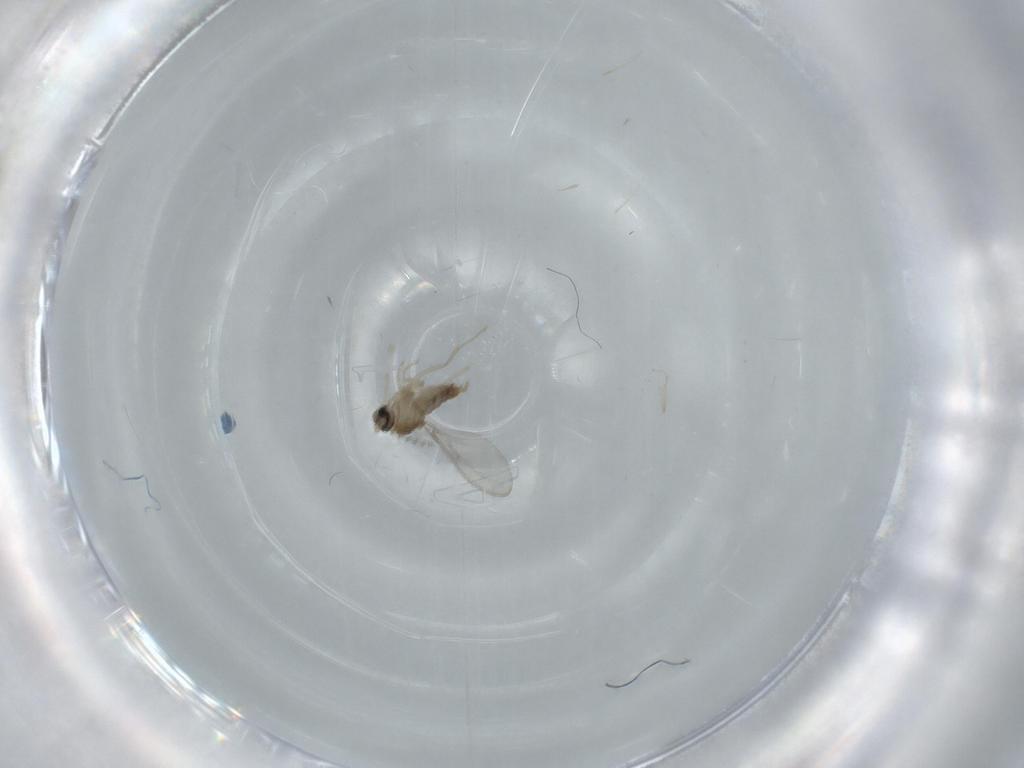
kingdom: Animalia
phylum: Arthropoda
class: Insecta
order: Diptera
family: Cecidomyiidae
